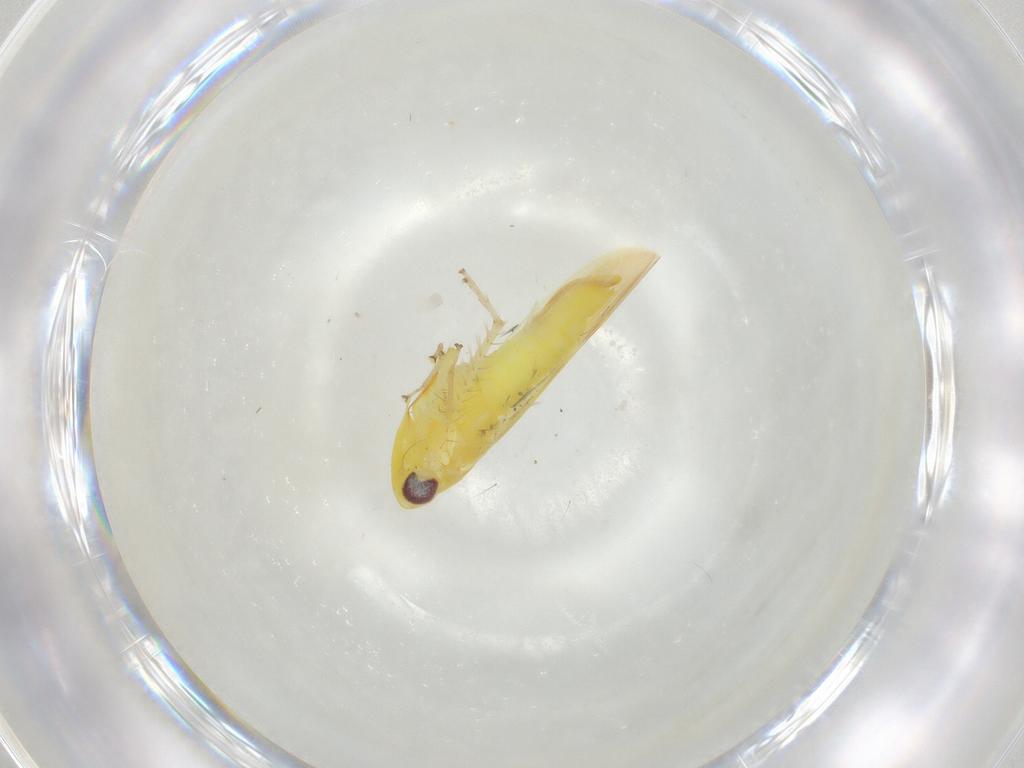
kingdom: Animalia
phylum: Arthropoda
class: Insecta
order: Hemiptera
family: Cicadellidae
